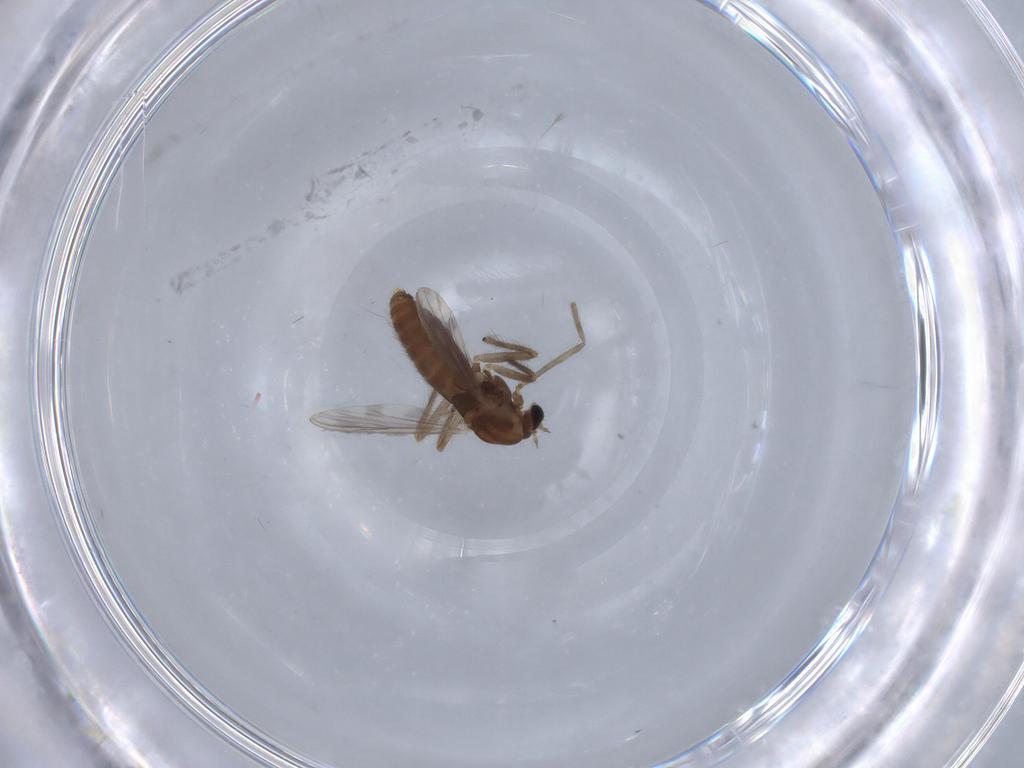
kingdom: Animalia
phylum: Arthropoda
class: Insecta
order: Diptera
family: Chironomidae
